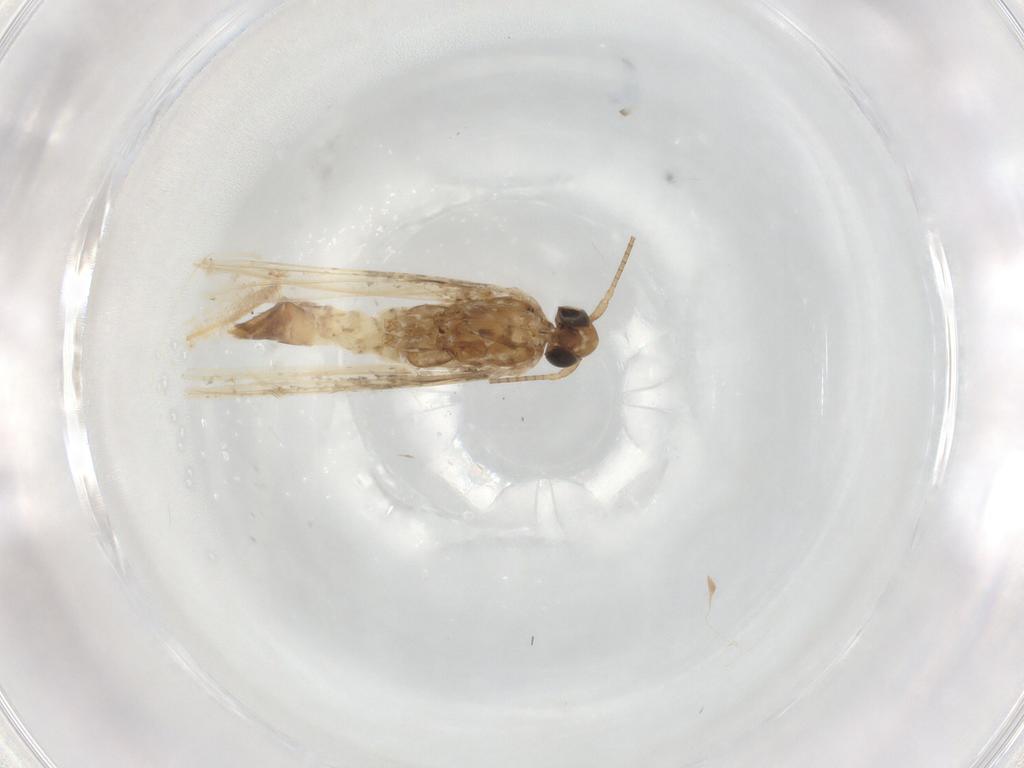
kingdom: Animalia
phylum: Arthropoda
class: Insecta
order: Lepidoptera
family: Gracillariidae
